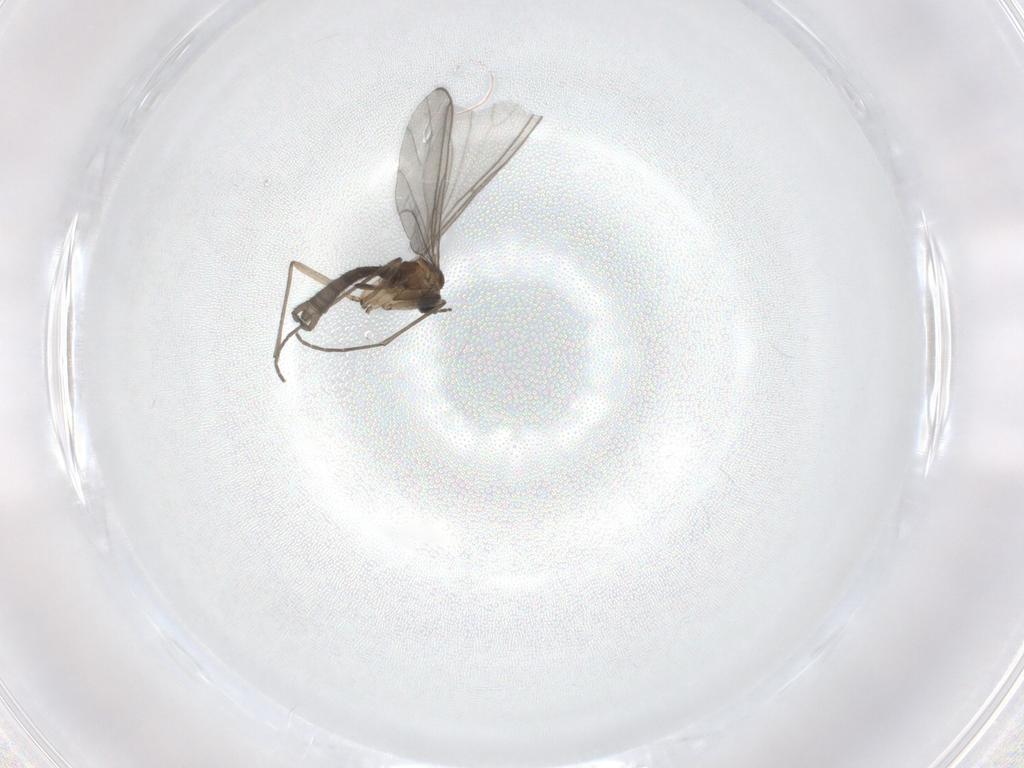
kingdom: Animalia
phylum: Arthropoda
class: Insecta
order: Diptera
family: Sciaridae
